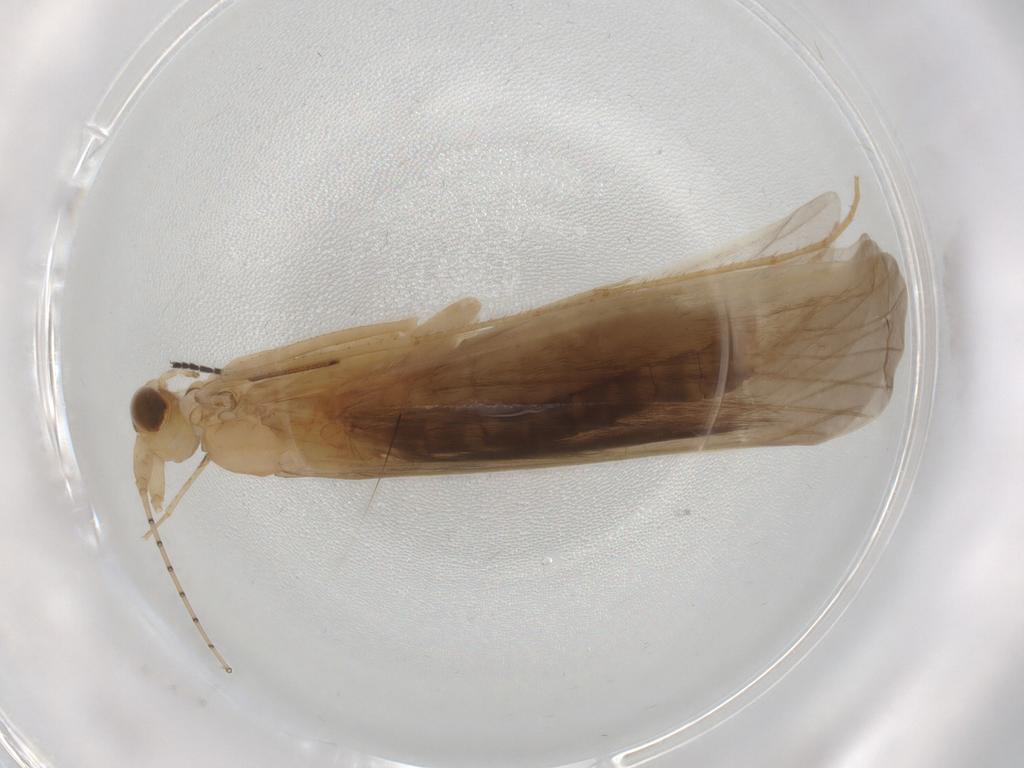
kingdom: Animalia
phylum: Arthropoda
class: Insecta
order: Trichoptera
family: Leptoceridae
